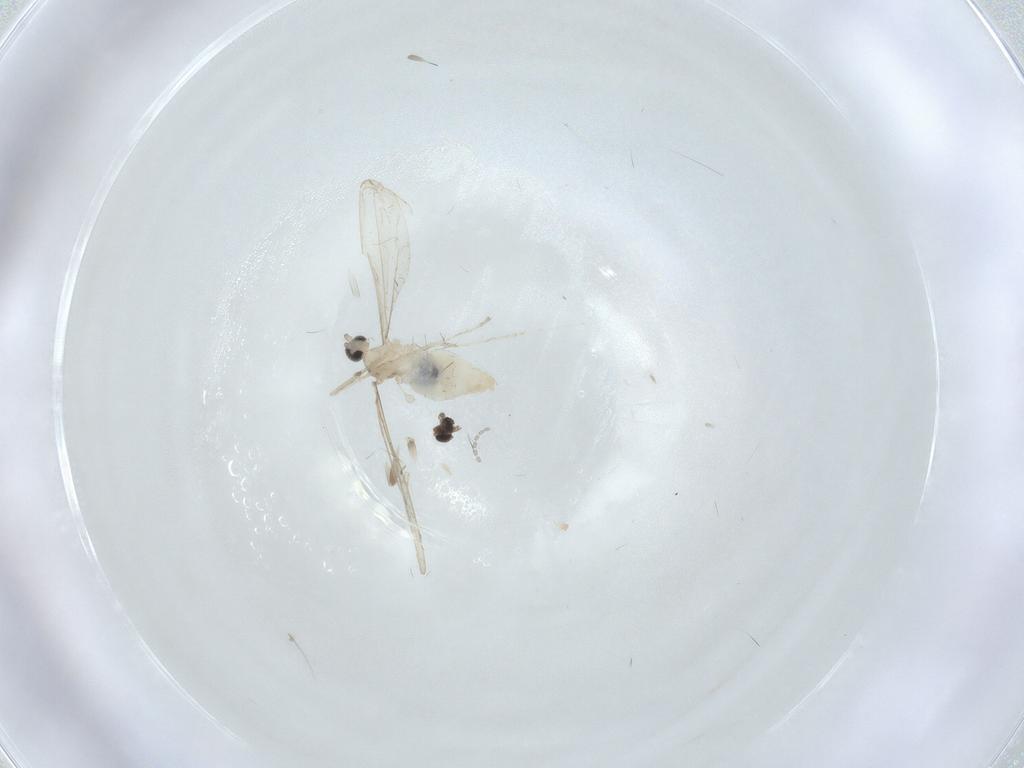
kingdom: Animalia
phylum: Arthropoda
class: Insecta
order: Diptera
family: Cecidomyiidae
